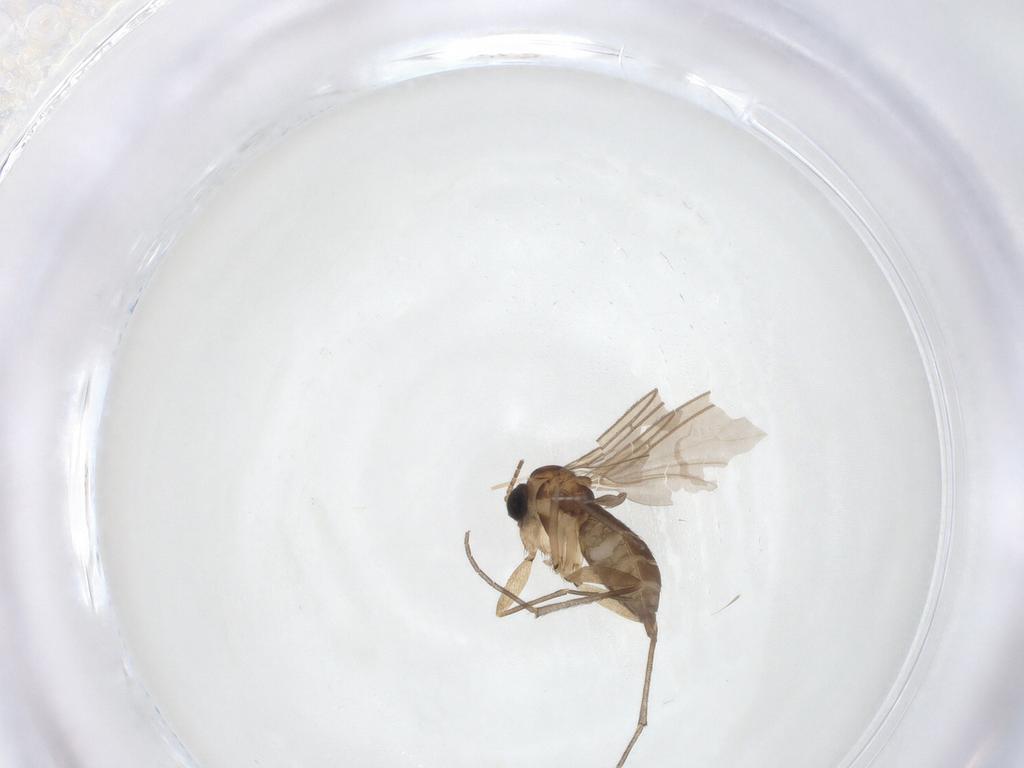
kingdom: Animalia
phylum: Arthropoda
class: Insecta
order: Diptera
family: Sciaridae
